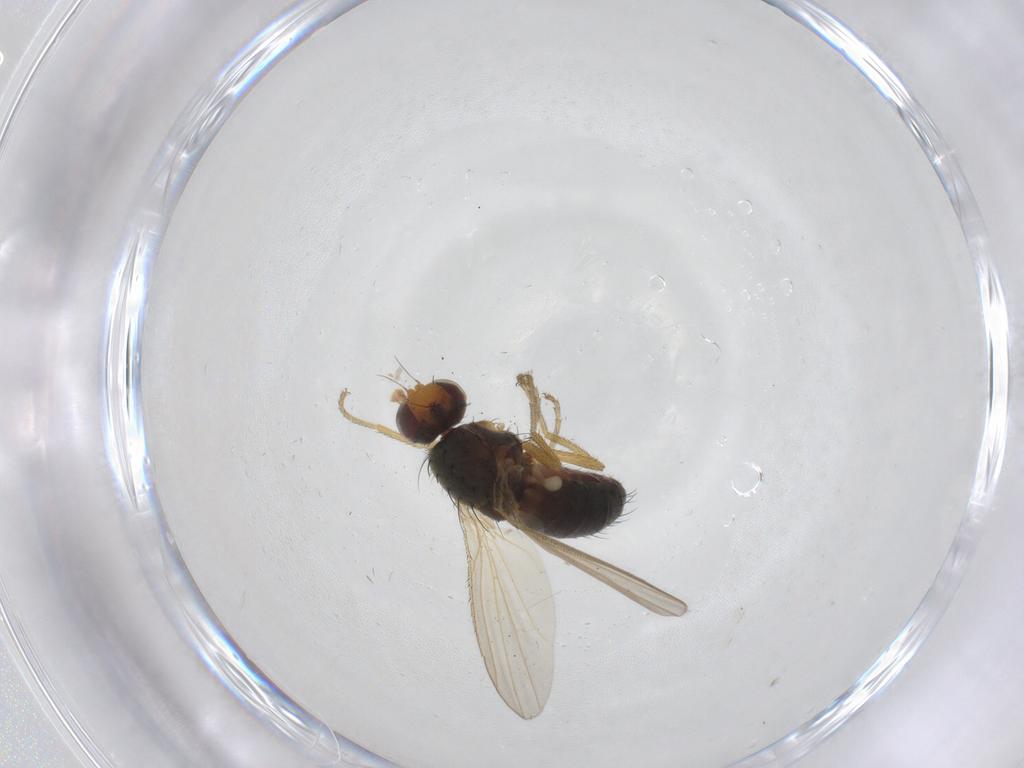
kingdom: Animalia
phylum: Arthropoda
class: Insecta
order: Diptera
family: Heleomyzidae
